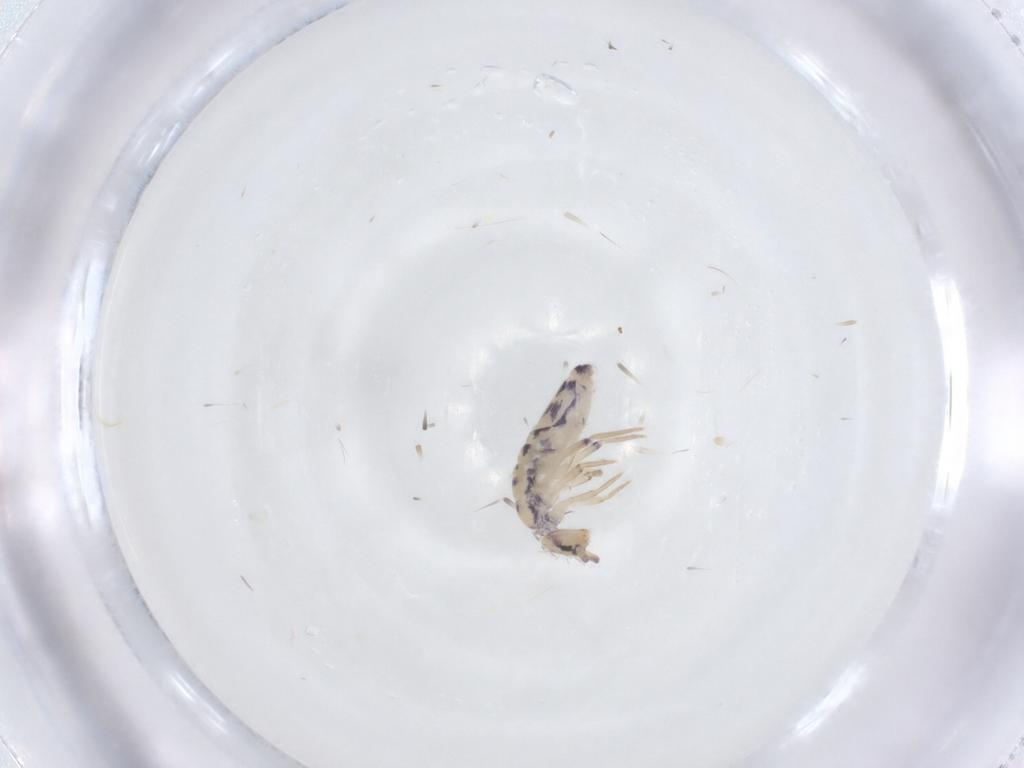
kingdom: Animalia
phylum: Arthropoda
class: Collembola
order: Entomobryomorpha
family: Entomobryidae
